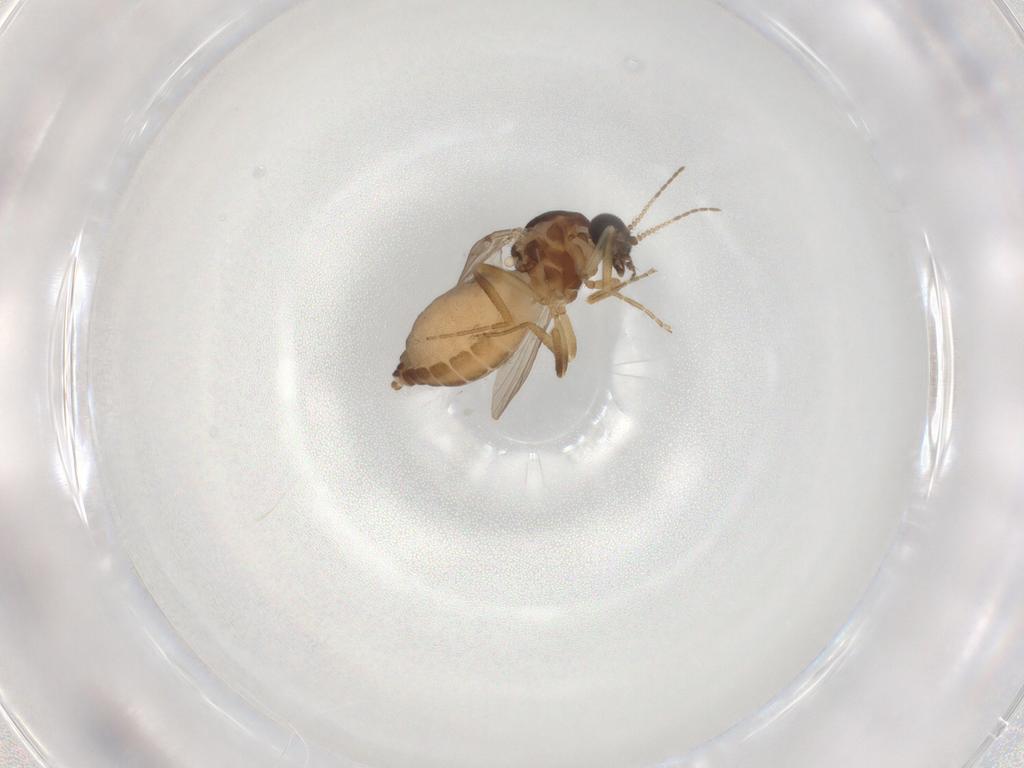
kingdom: Animalia
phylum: Arthropoda
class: Insecta
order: Diptera
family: Ceratopogonidae
